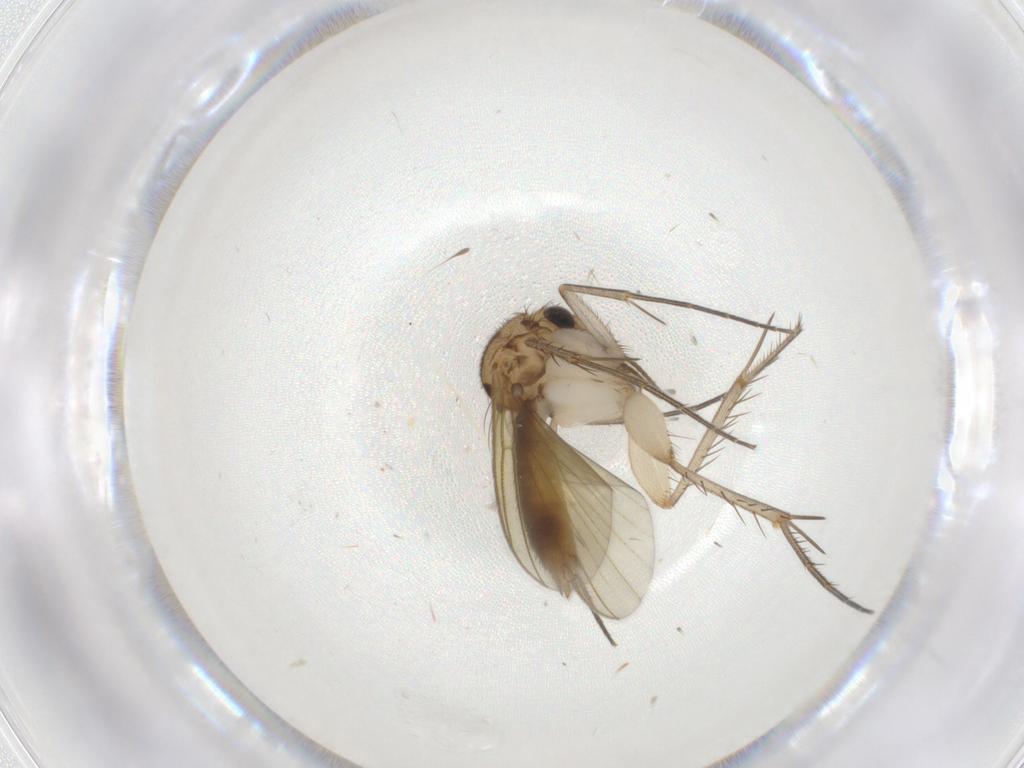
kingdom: Animalia
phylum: Arthropoda
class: Insecta
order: Diptera
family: Mycetophilidae
